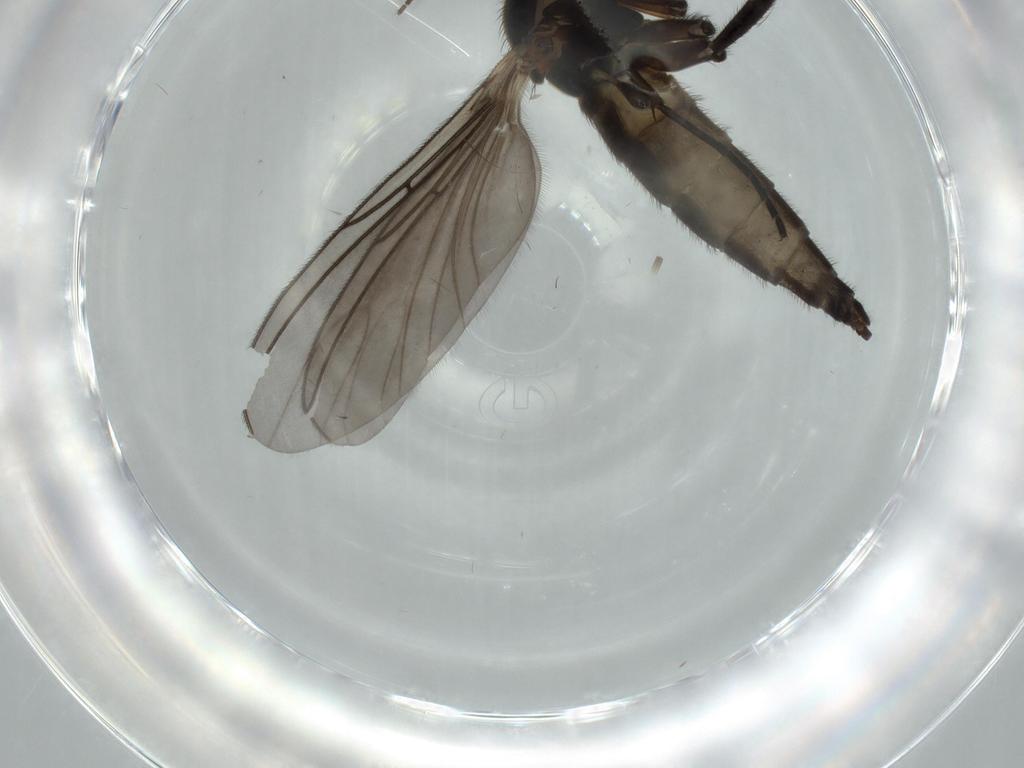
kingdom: Animalia
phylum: Arthropoda
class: Insecta
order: Diptera
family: Sciaridae
